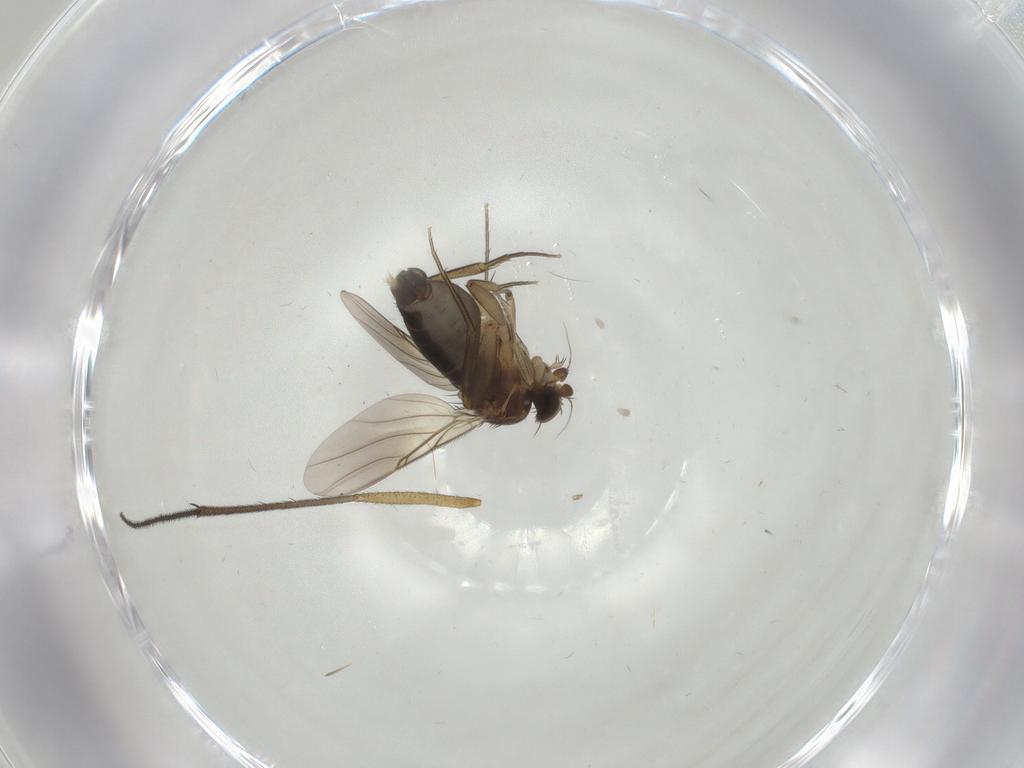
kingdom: Animalia
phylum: Arthropoda
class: Insecta
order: Diptera
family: Phoridae
